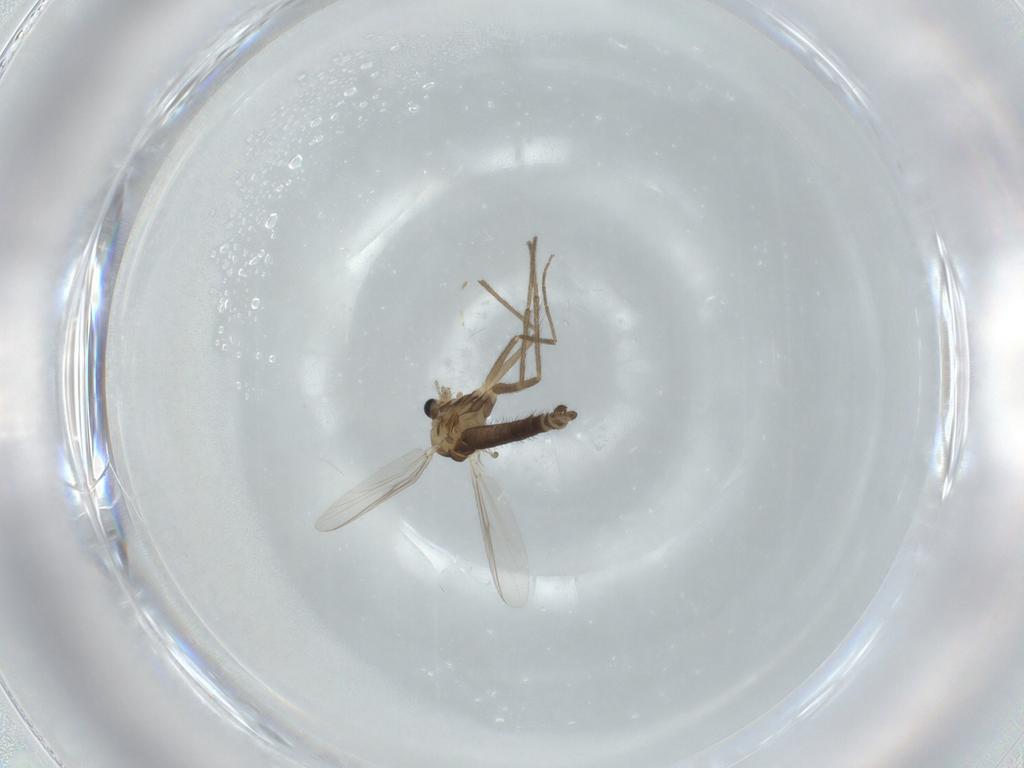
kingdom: Animalia
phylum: Arthropoda
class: Insecta
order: Diptera
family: Chironomidae
